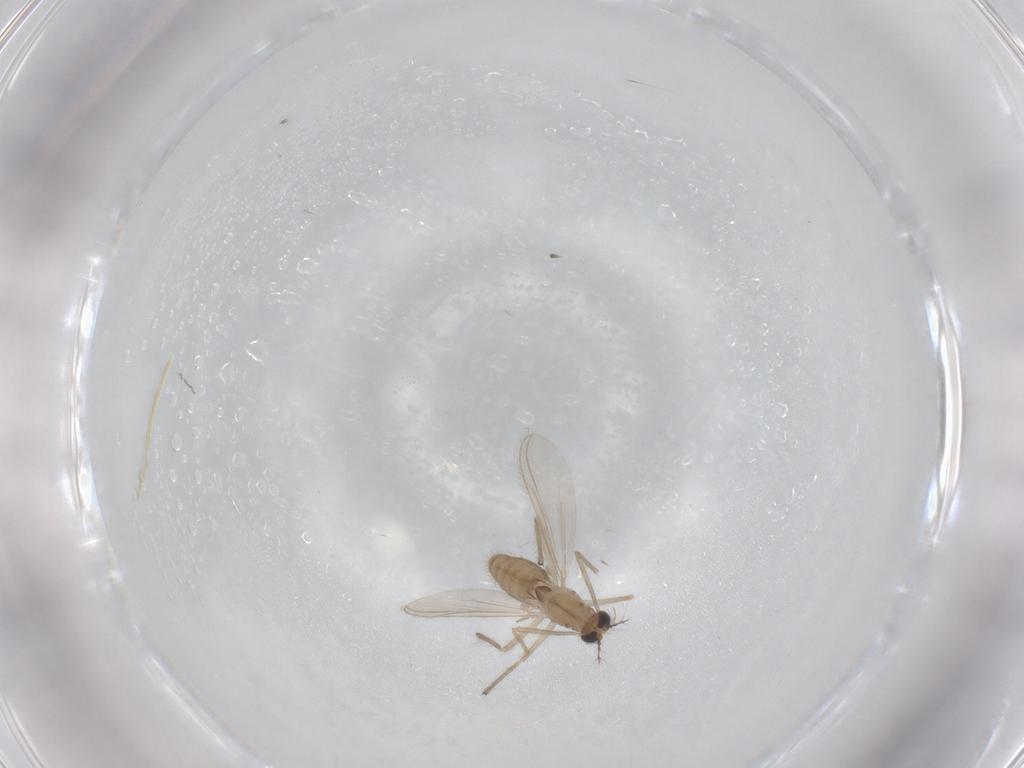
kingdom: Animalia
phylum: Arthropoda
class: Insecta
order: Diptera
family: Chironomidae
